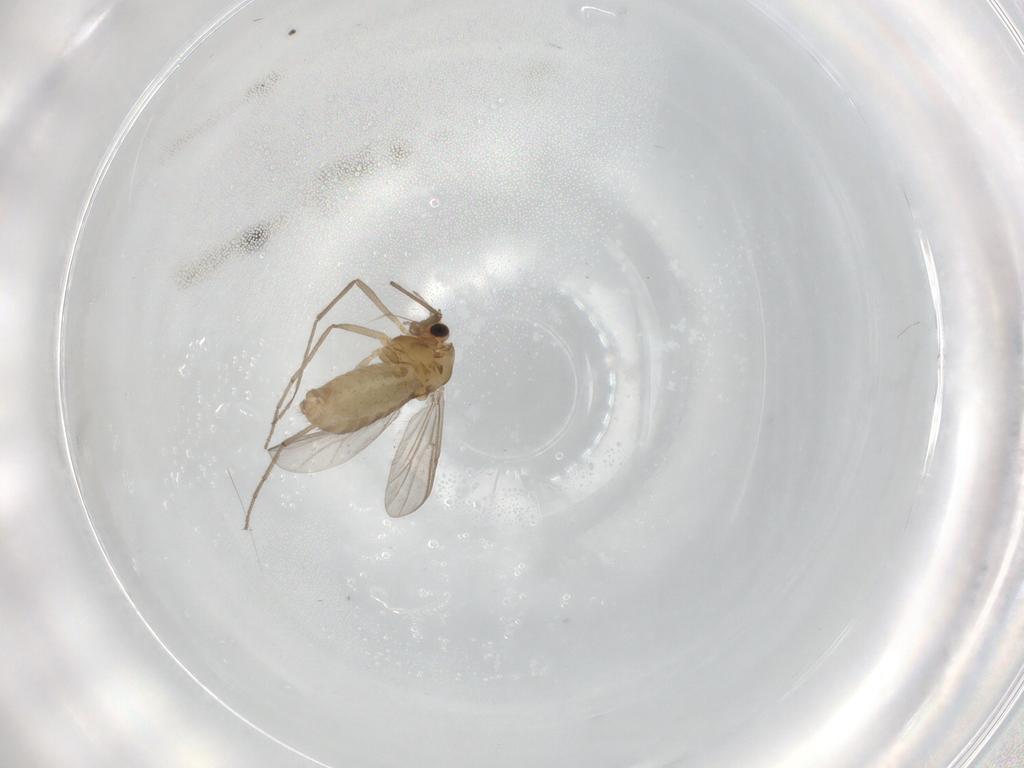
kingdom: Animalia
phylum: Arthropoda
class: Insecta
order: Diptera
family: Chironomidae
